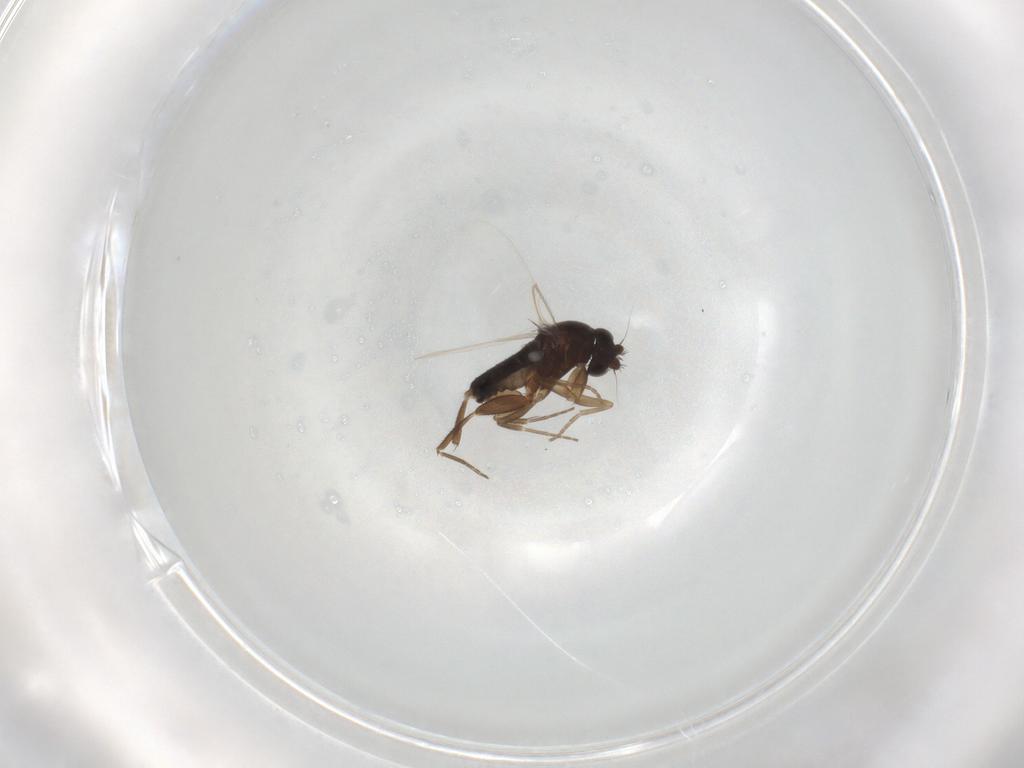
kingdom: Animalia
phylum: Arthropoda
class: Insecta
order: Diptera
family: Phoridae
